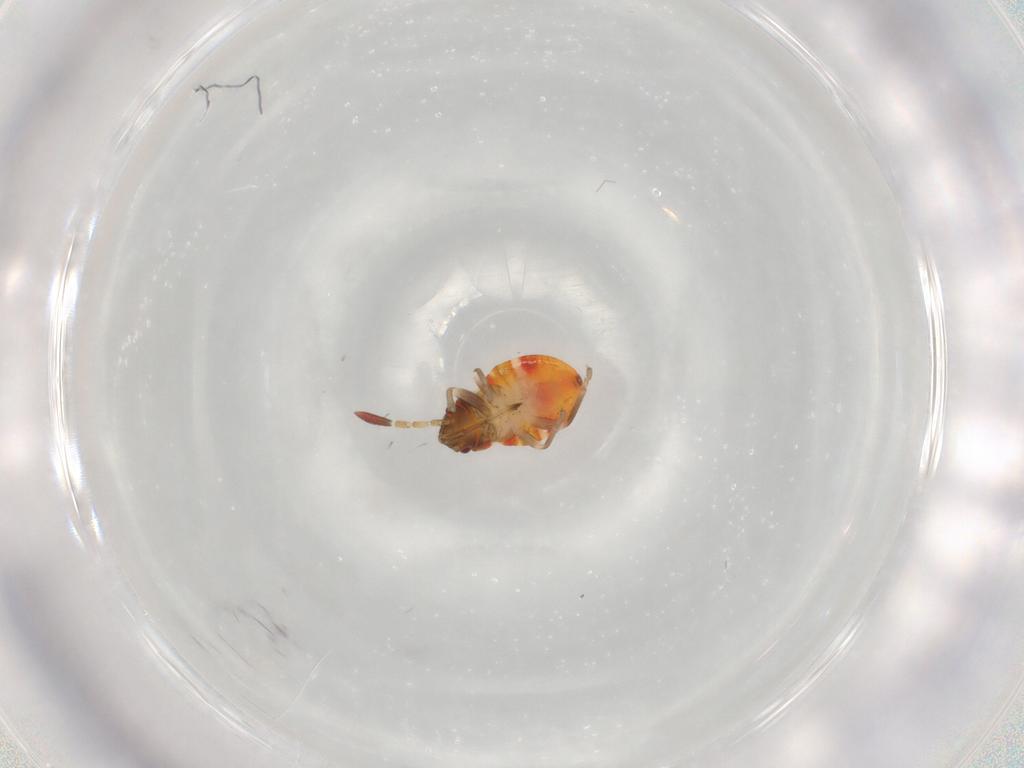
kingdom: Animalia
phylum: Arthropoda
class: Insecta
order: Hemiptera
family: Rhyparochromidae
